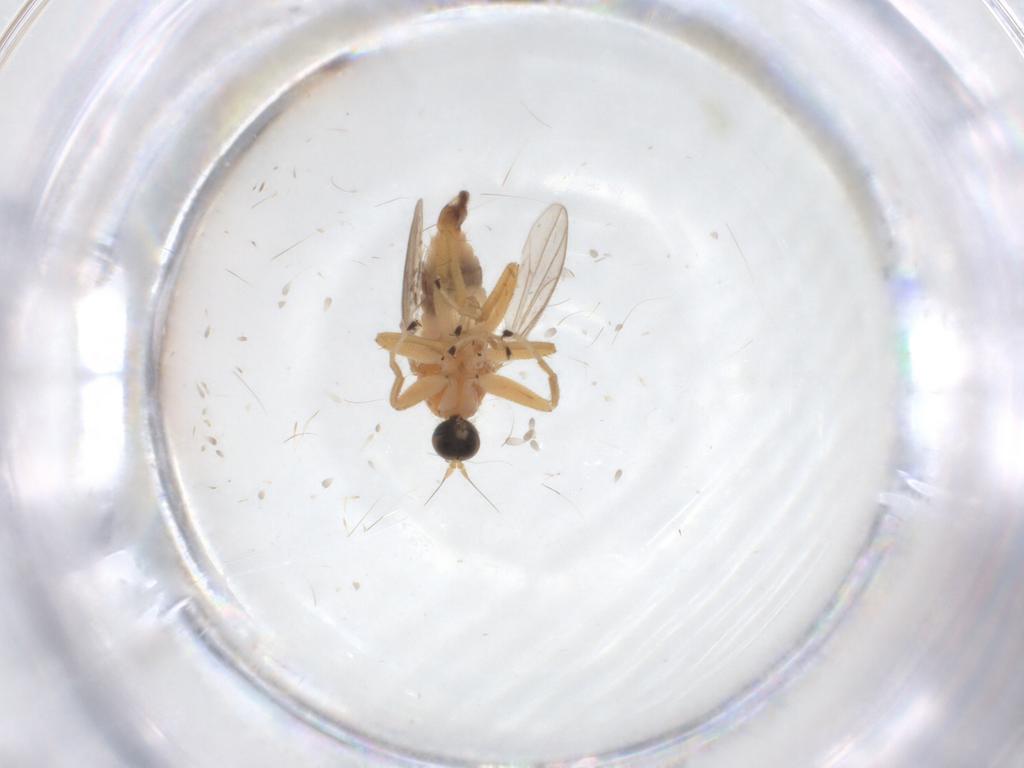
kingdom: Animalia
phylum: Arthropoda
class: Insecta
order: Diptera
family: Hybotidae
